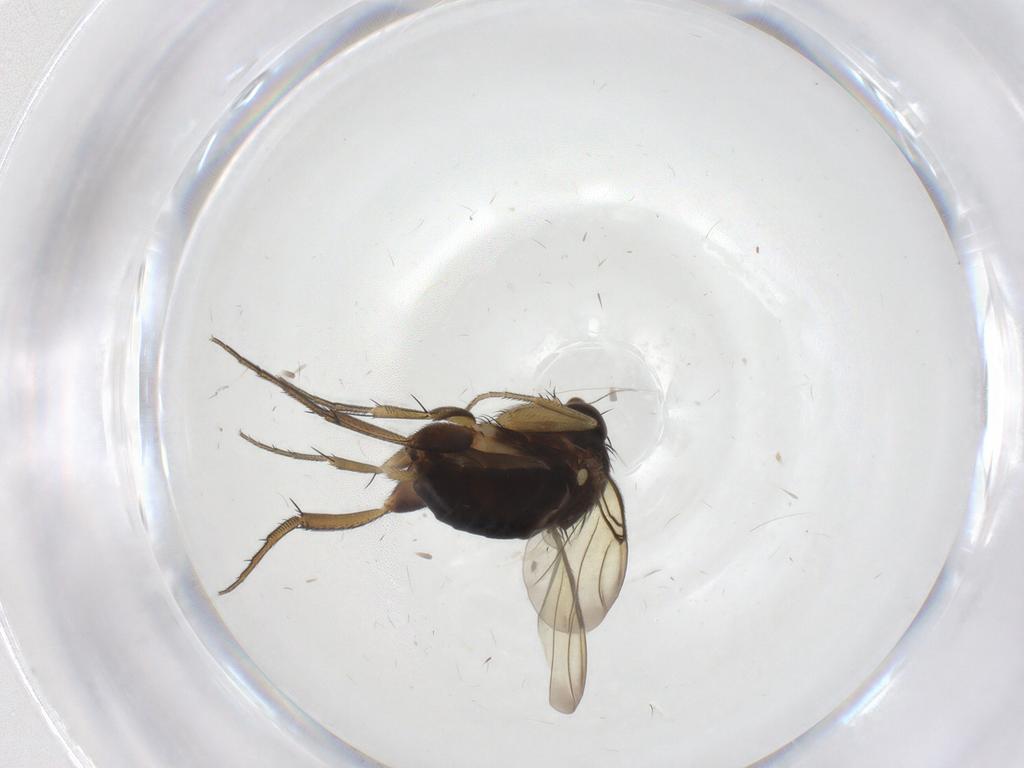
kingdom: Animalia
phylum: Arthropoda
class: Insecta
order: Diptera
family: Phoridae
